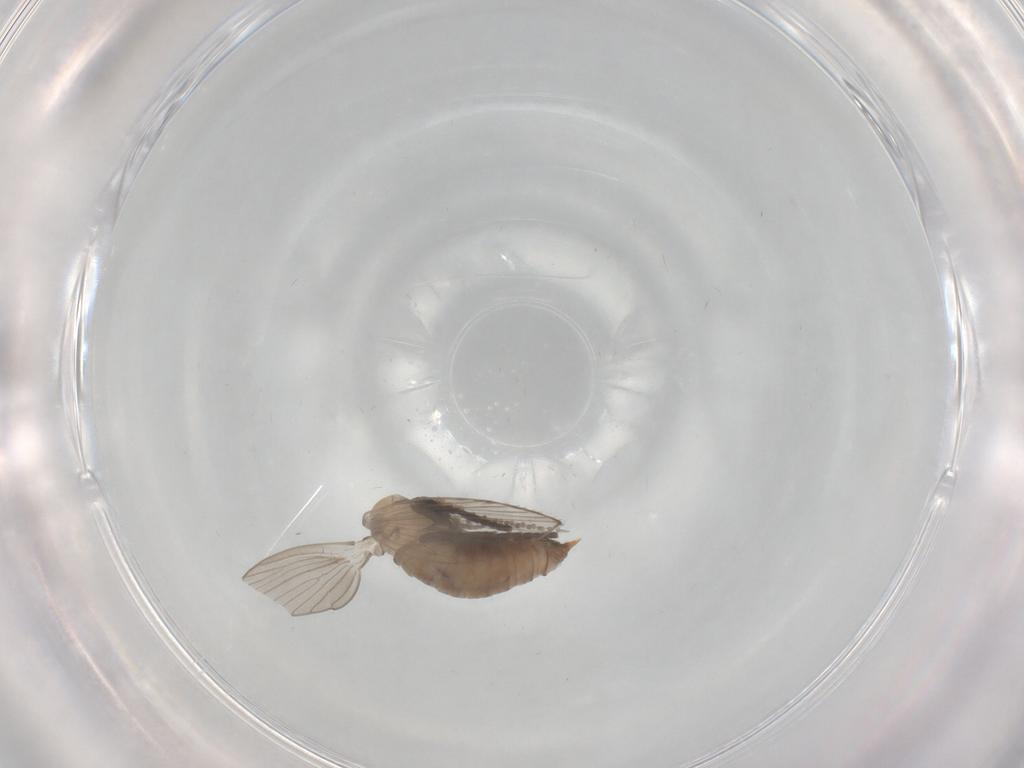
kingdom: Animalia
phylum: Arthropoda
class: Insecta
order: Diptera
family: Psychodidae
